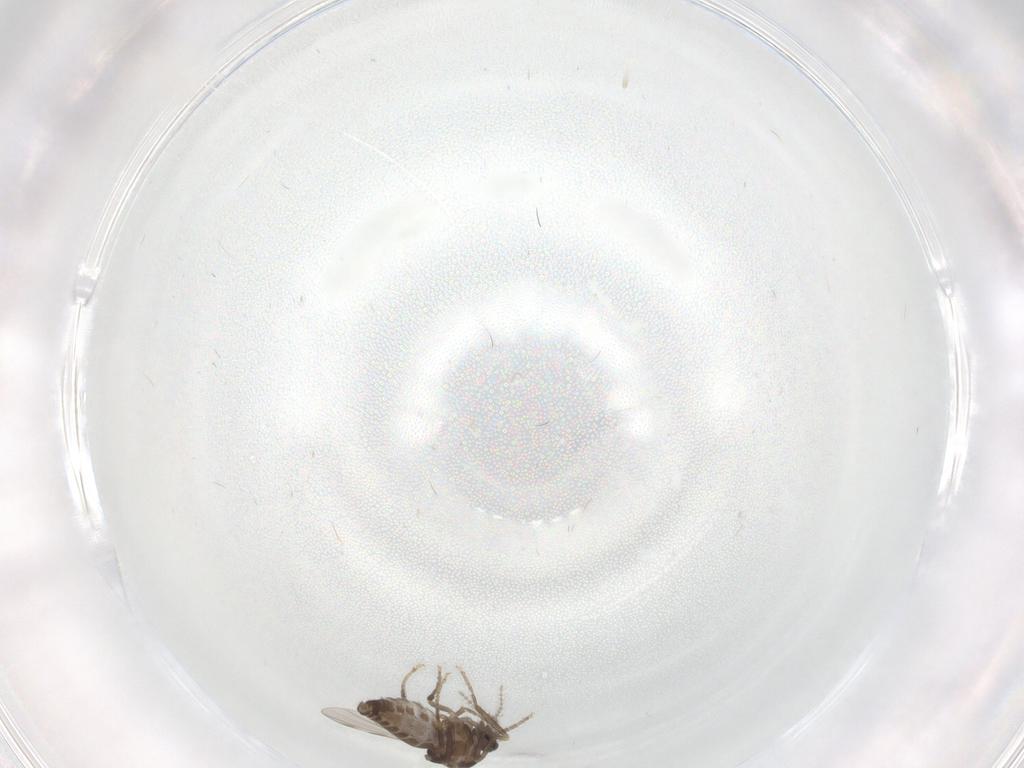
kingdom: Animalia
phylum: Arthropoda
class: Insecta
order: Diptera
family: Ceratopogonidae
